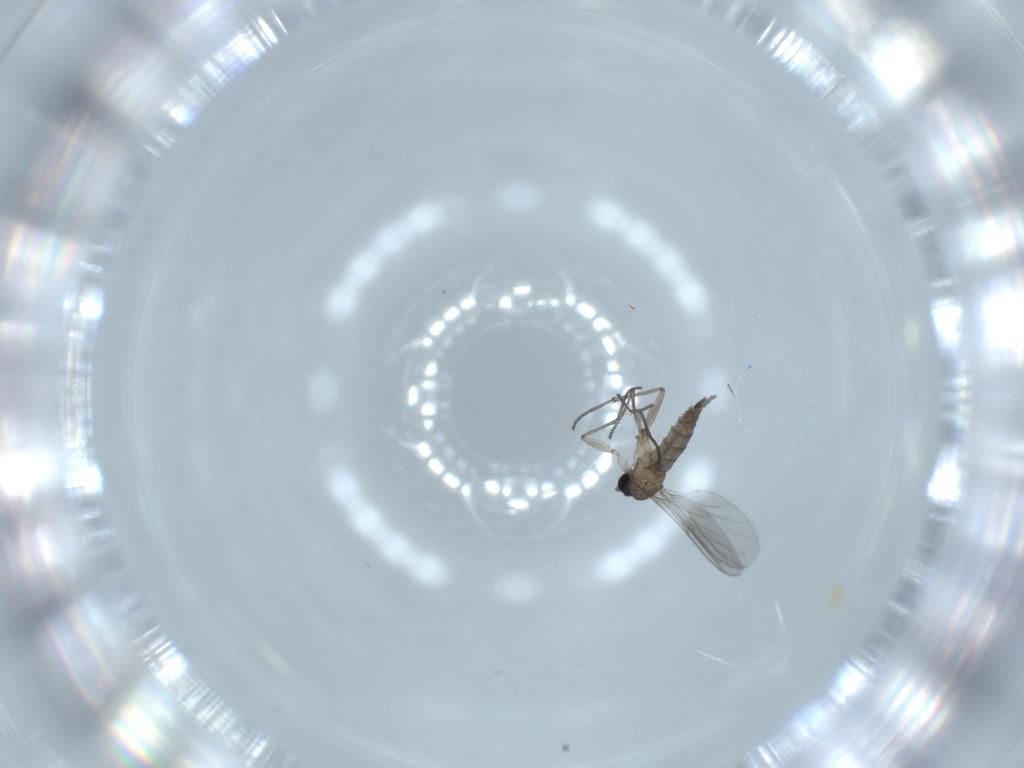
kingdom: Animalia
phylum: Arthropoda
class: Insecta
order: Diptera
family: Sciaridae
